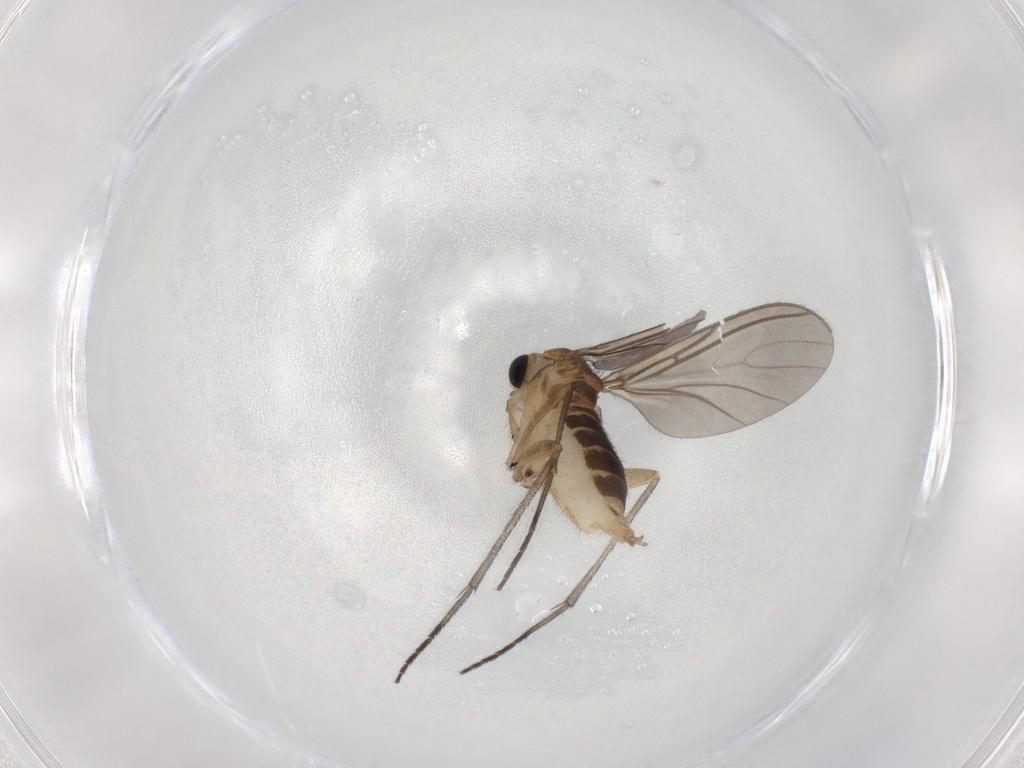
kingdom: Animalia
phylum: Arthropoda
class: Insecta
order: Diptera
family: Sciaridae
